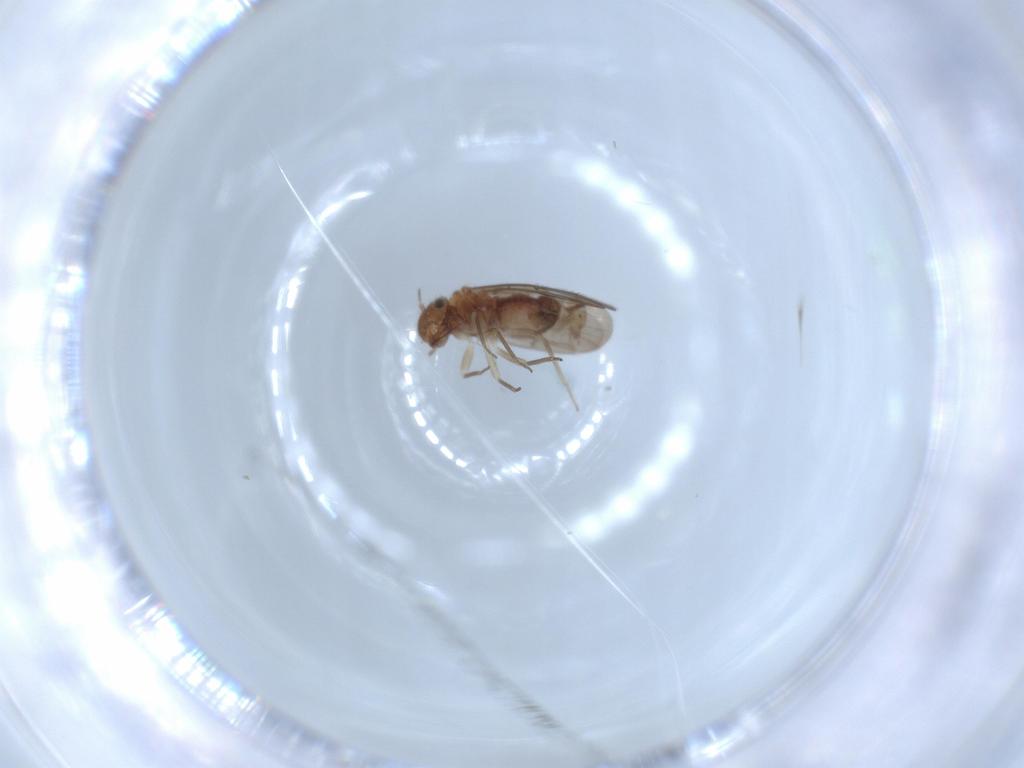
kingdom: Animalia
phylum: Arthropoda
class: Insecta
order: Psocodea
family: Ectopsocidae
